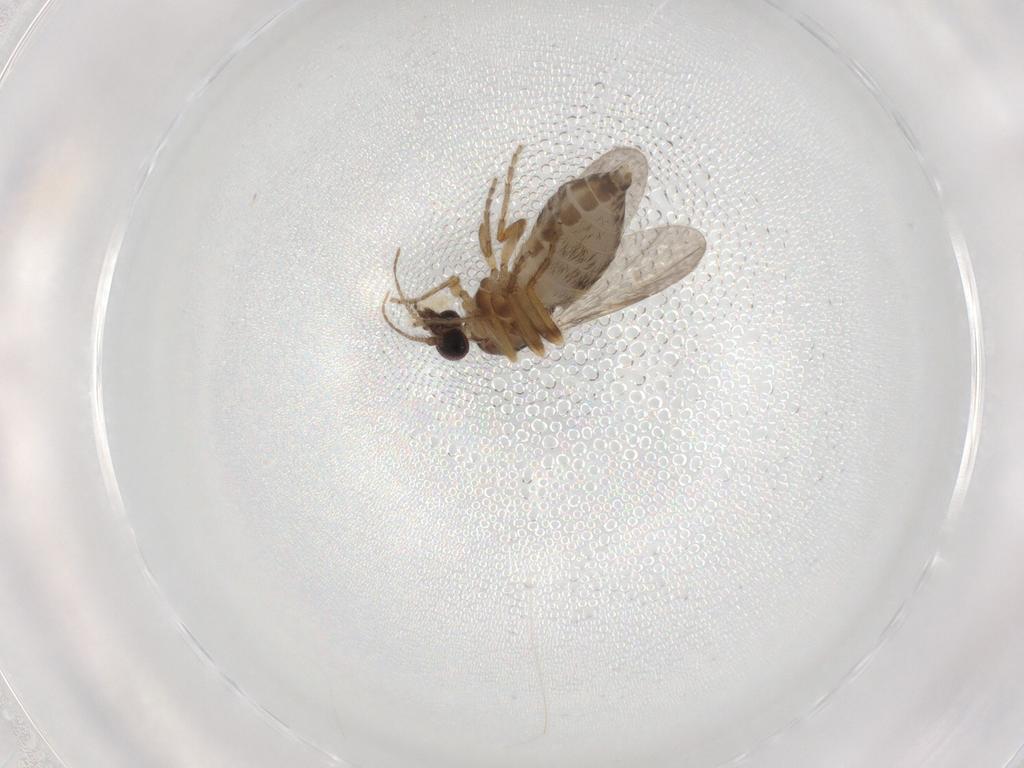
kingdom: Animalia
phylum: Arthropoda
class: Insecta
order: Diptera
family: Ceratopogonidae
